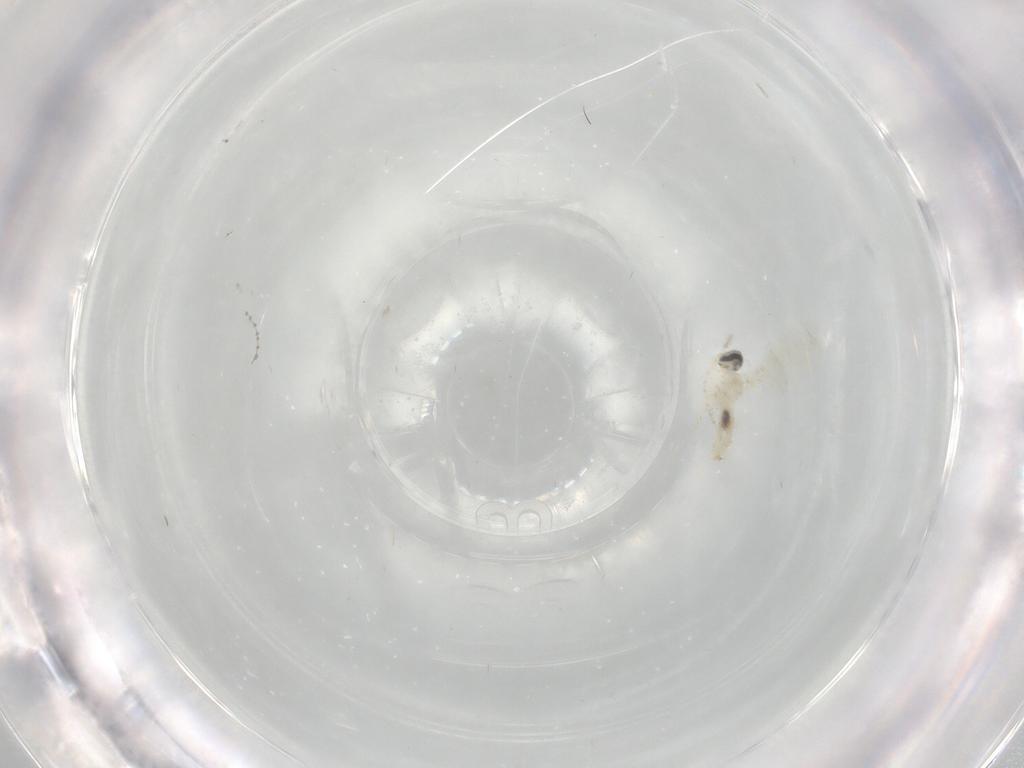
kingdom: Animalia
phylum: Arthropoda
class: Insecta
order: Diptera
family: Cecidomyiidae
